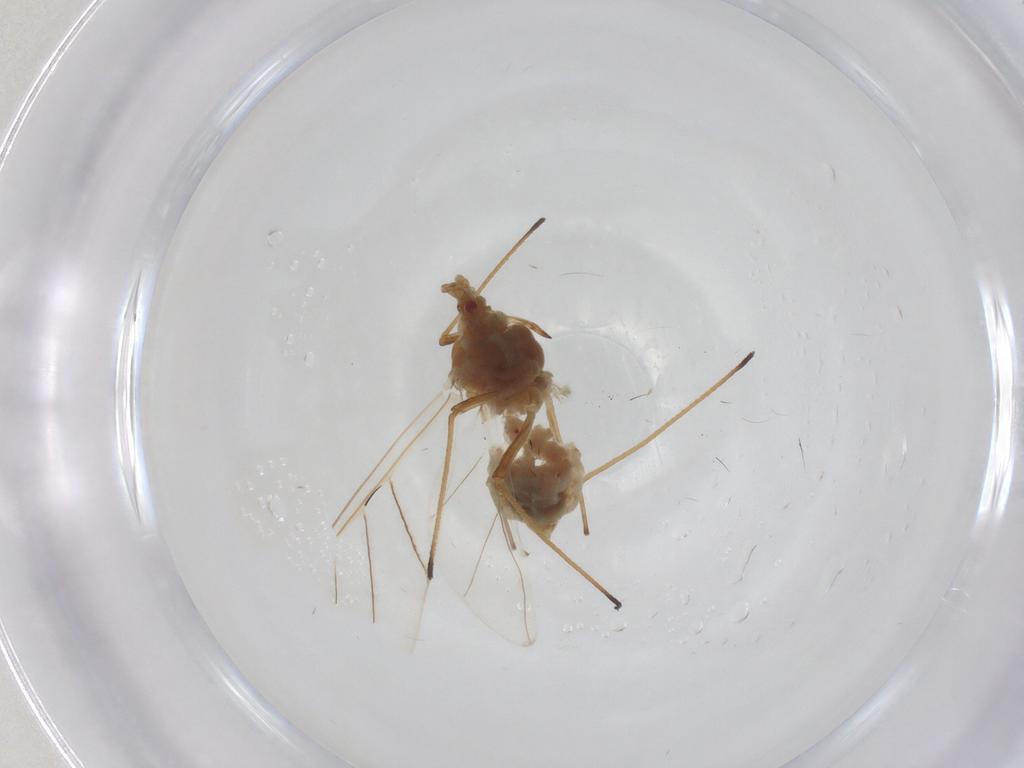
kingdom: Animalia
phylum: Arthropoda
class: Insecta
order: Hemiptera
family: Aphididae
